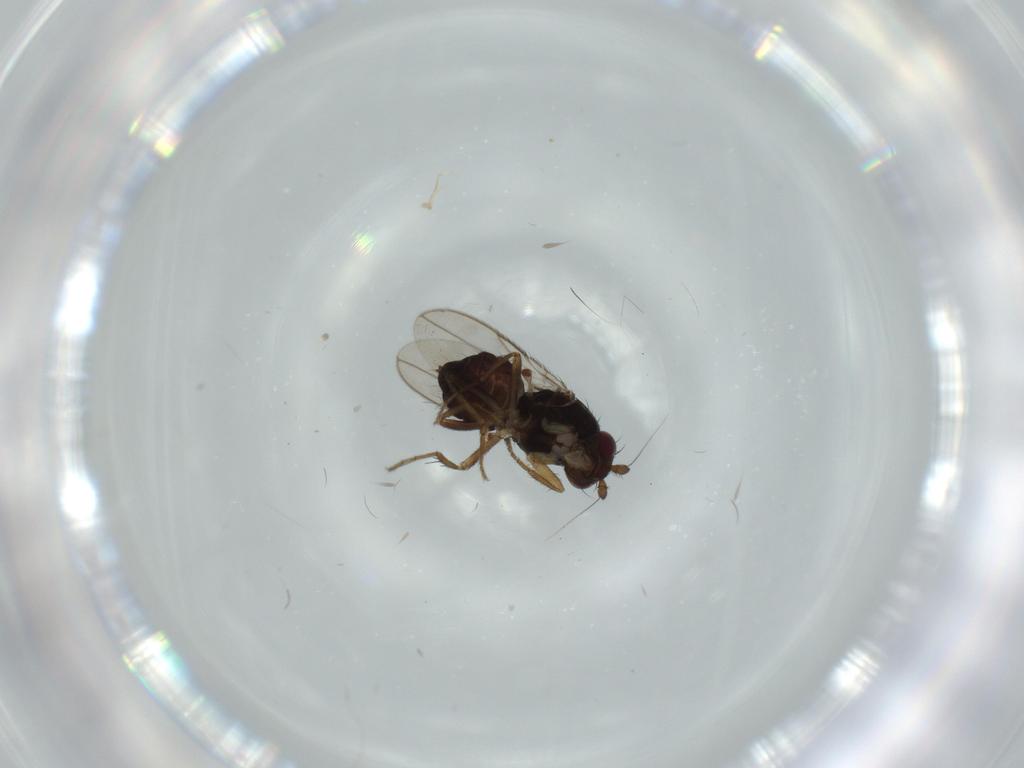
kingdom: Animalia
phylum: Arthropoda
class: Insecta
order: Diptera
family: Sphaeroceridae
